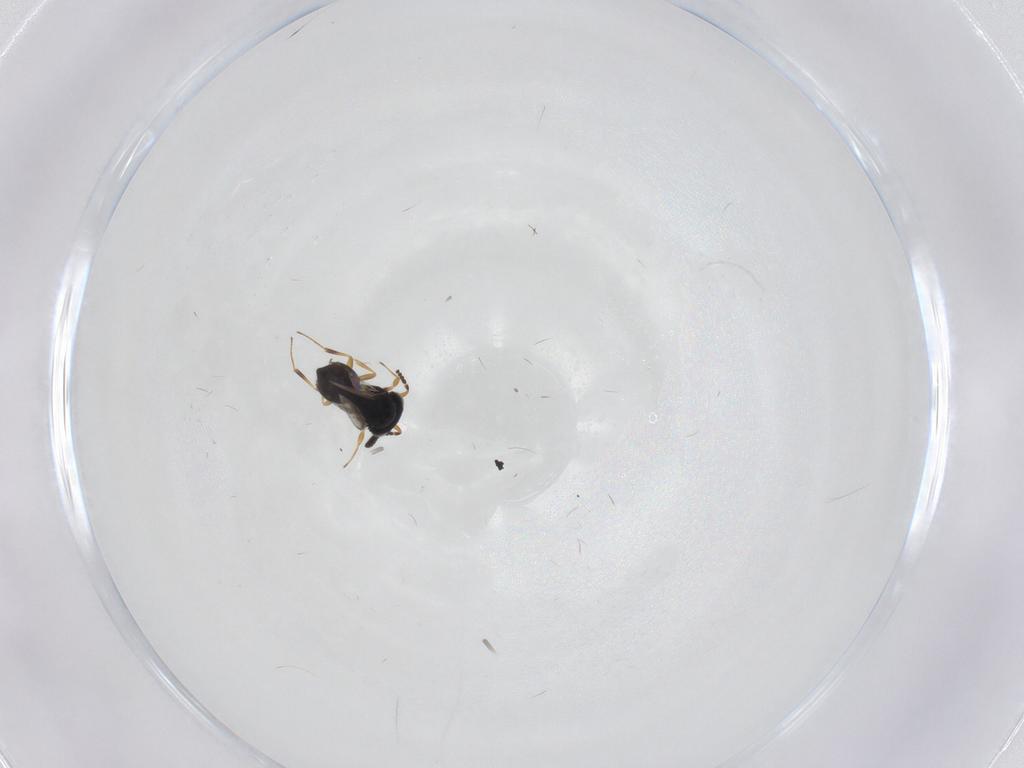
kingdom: Animalia
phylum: Arthropoda
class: Insecta
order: Hymenoptera
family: Scelionidae
